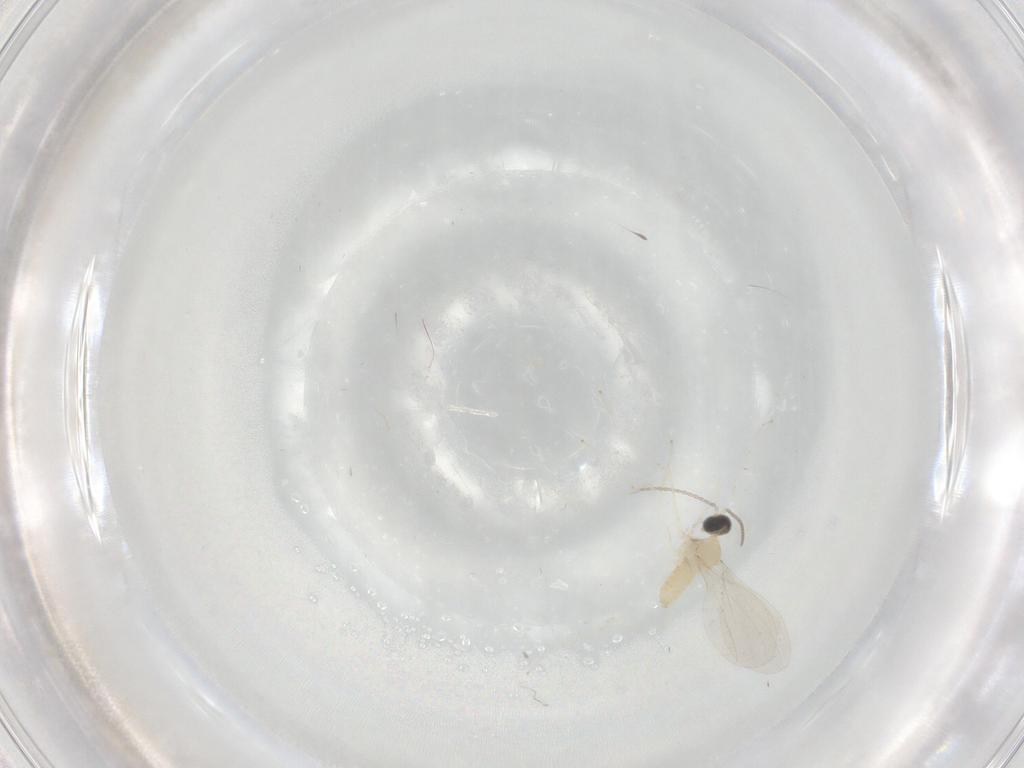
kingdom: Animalia
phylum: Arthropoda
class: Insecta
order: Diptera
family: Cecidomyiidae
